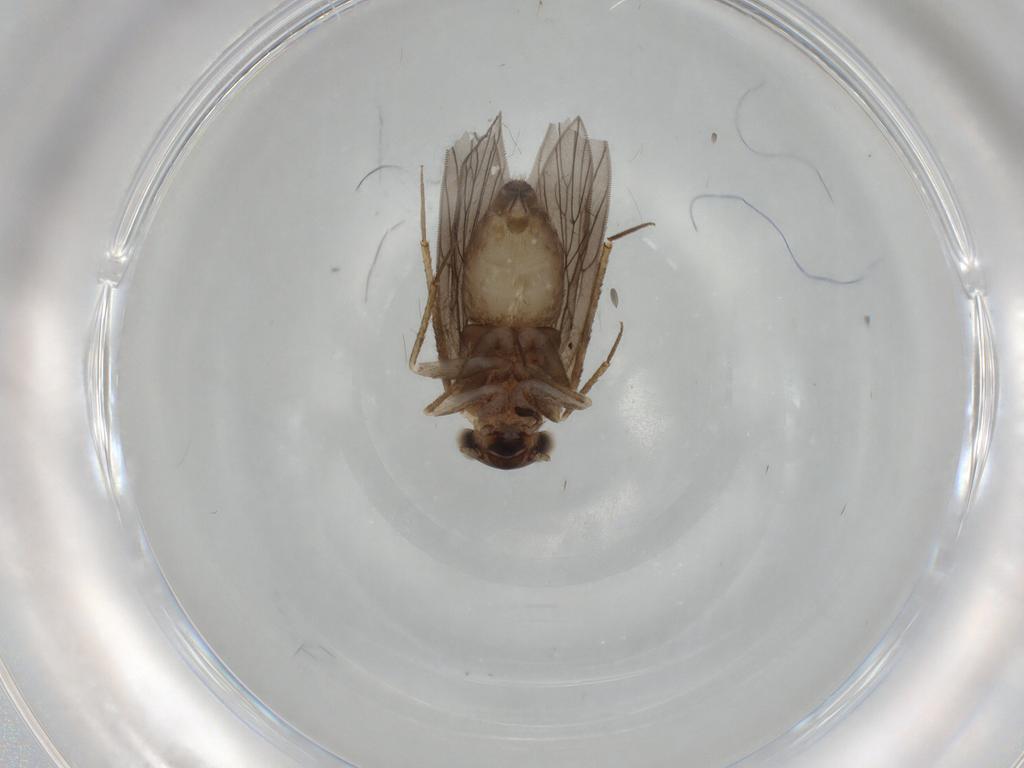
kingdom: Animalia
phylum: Arthropoda
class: Insecta
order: Psocodea
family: Lepidopsocidae
